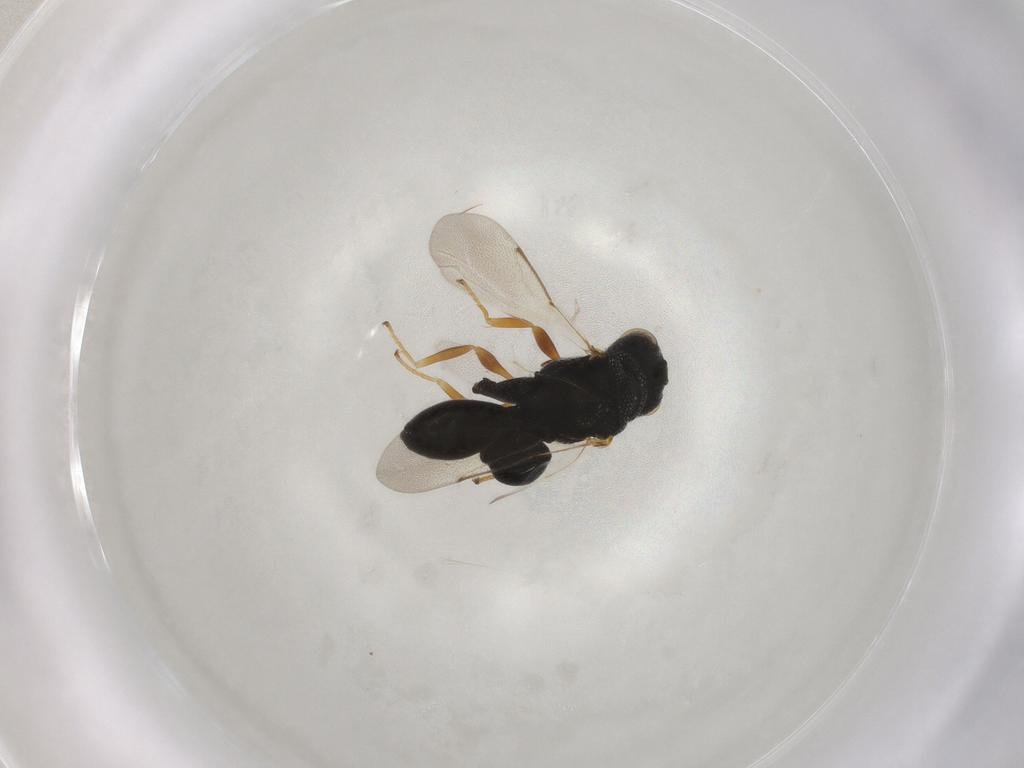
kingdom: Animalia
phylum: Arthropoda
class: Insecta
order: Hymenoptera
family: Chalcididae
